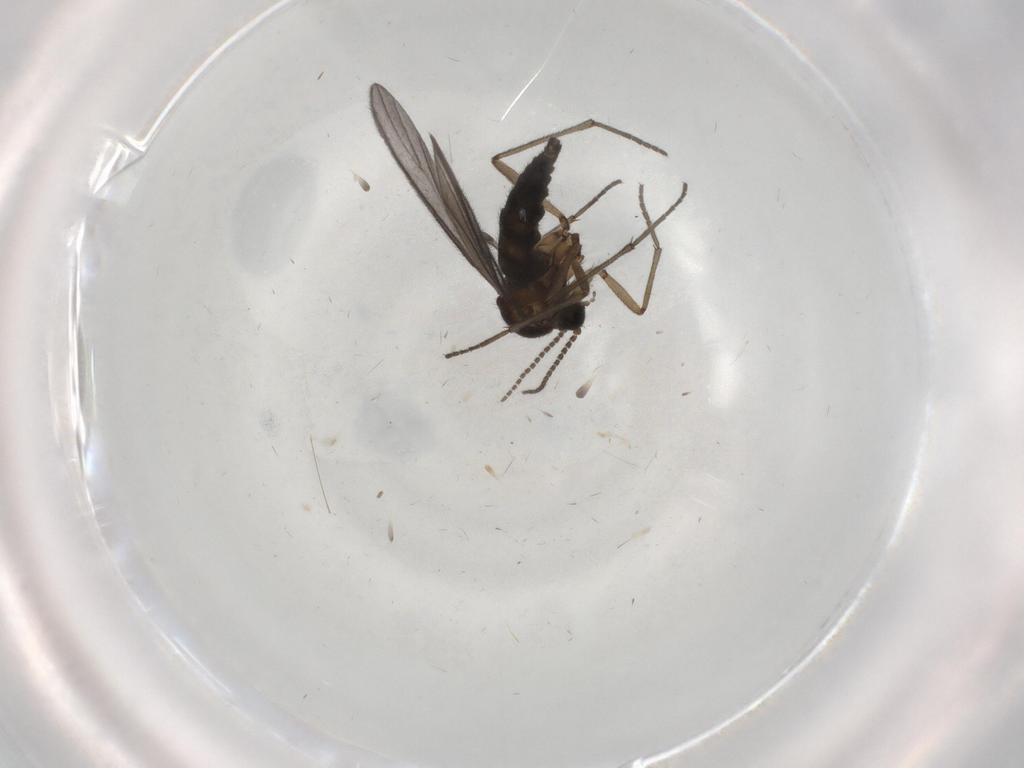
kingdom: Animalia
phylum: Arthropoda
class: Insecta
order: Diptera
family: Sciaridae
